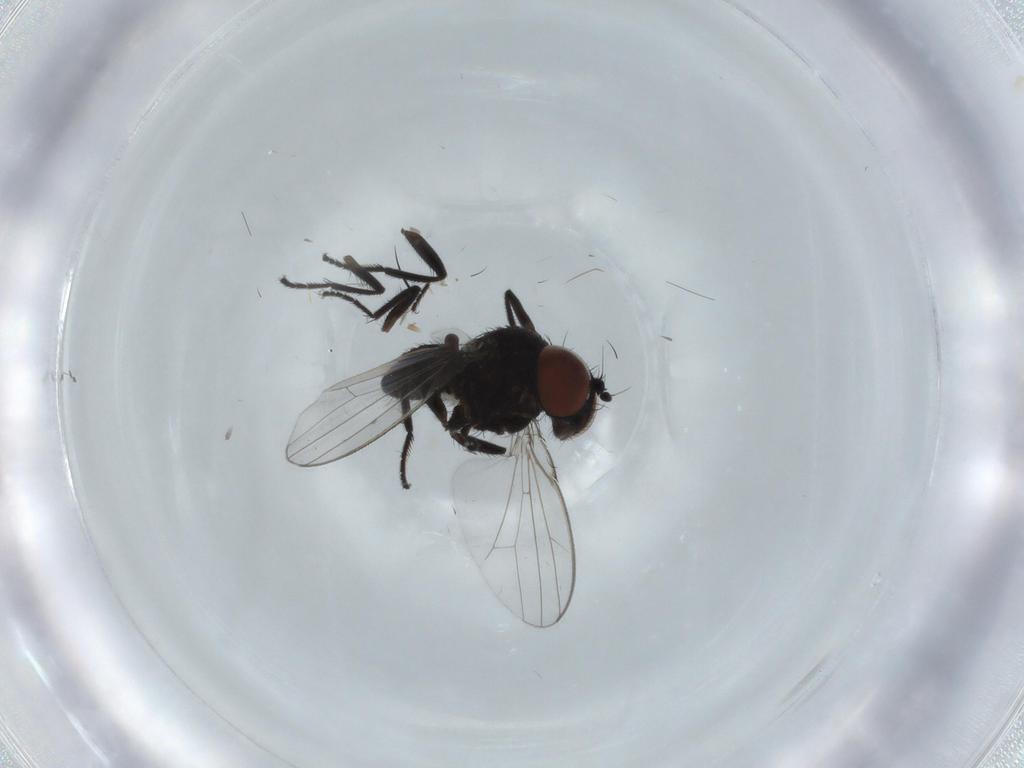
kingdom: Animalia
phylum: Arthropoda
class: Insecta
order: Diptera
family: Milichiidae
